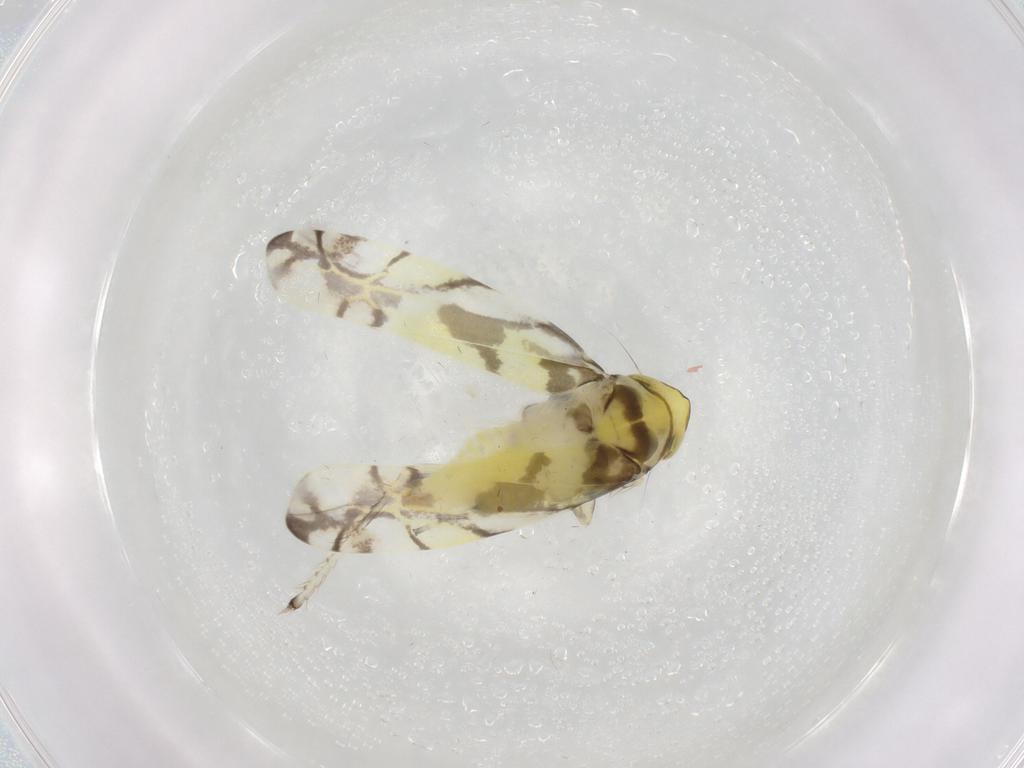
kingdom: Animalia
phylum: Arthropoda
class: Insecta
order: Hemiptera
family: Cicadellidae
